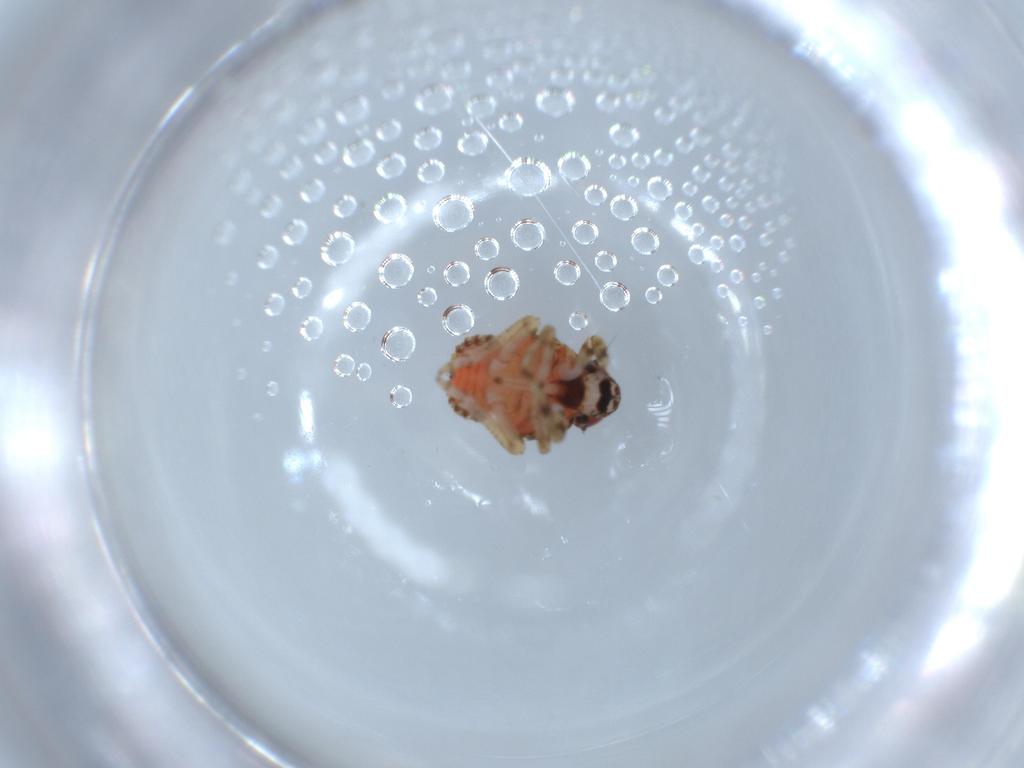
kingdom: Animalia
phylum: Arthropoda
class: Insecta
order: Hemiptera
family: Issidae
